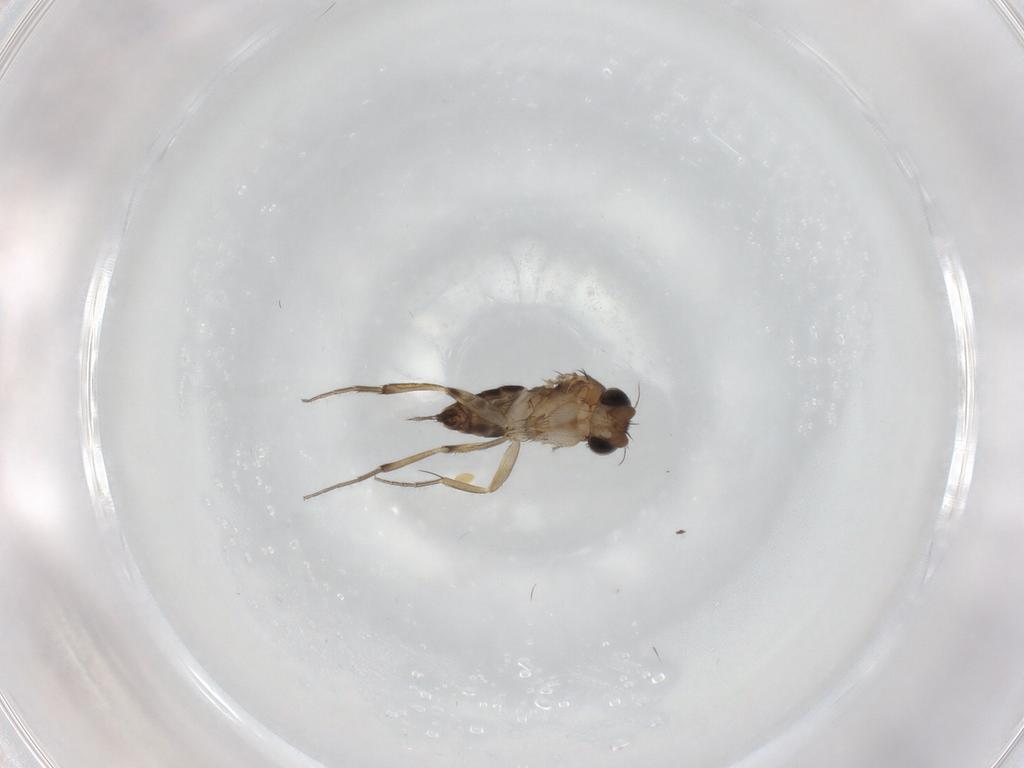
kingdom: Animalia
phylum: Arthropoda
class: Insecta
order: Diptera
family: Phoridae
